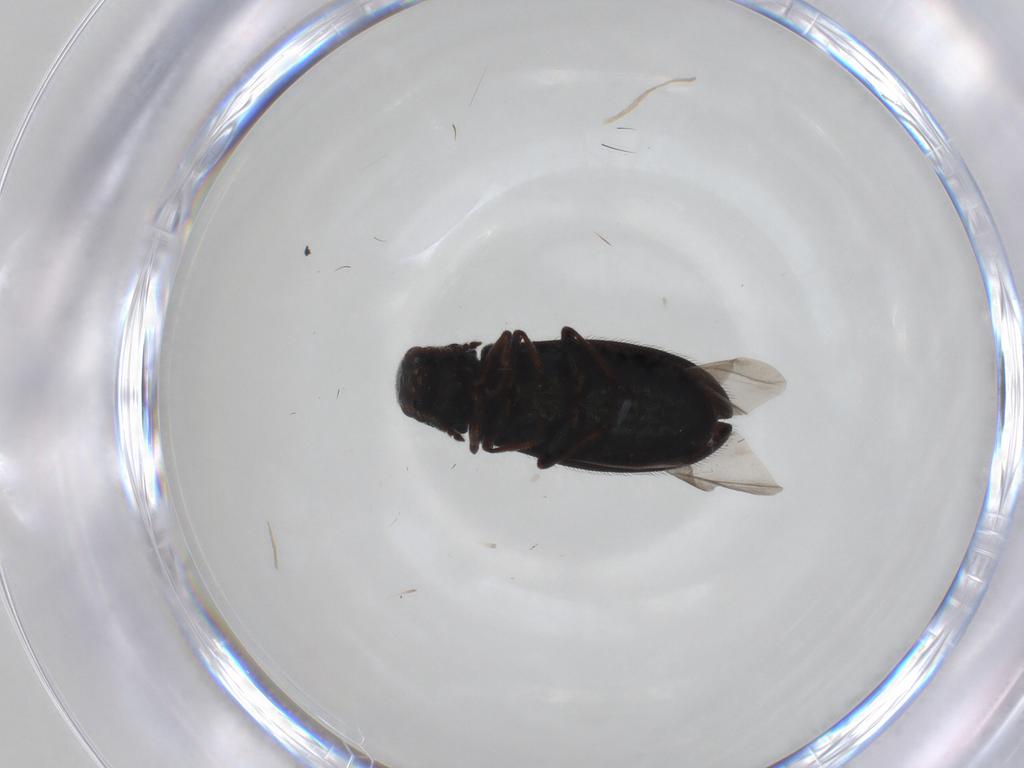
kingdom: Animalia
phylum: Arthropoda
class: Insecta
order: Coleoptera
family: Melyridae
